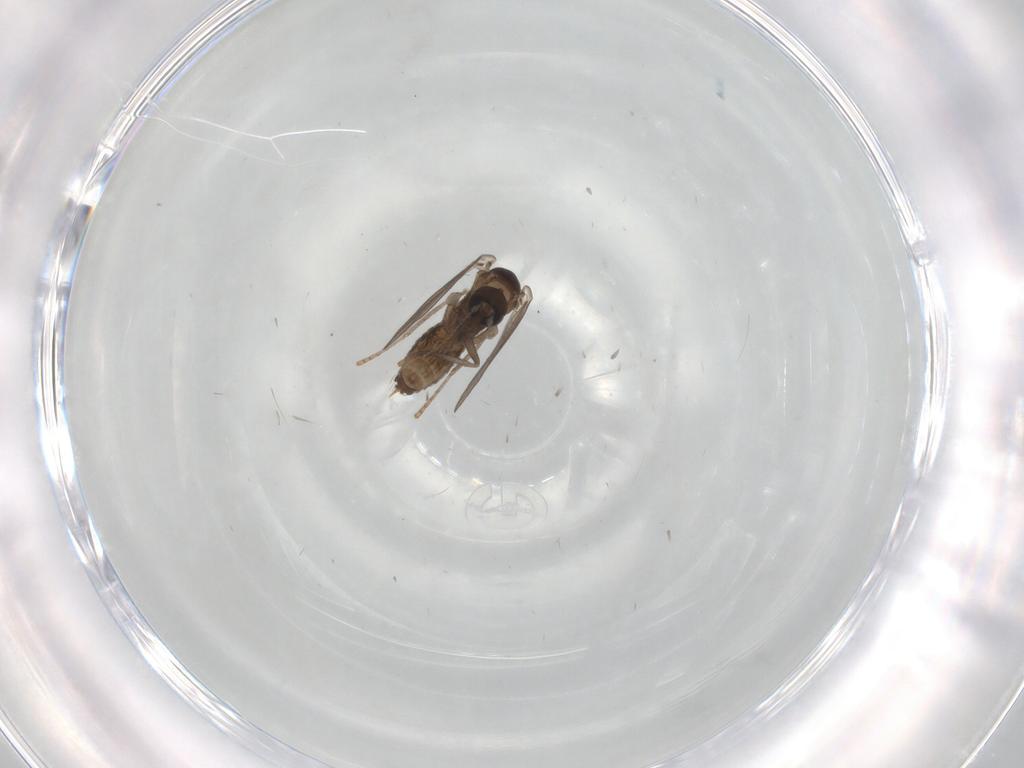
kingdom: Animalia
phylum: Arthropoda
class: Insecta
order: Diptera
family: Psychodidae
